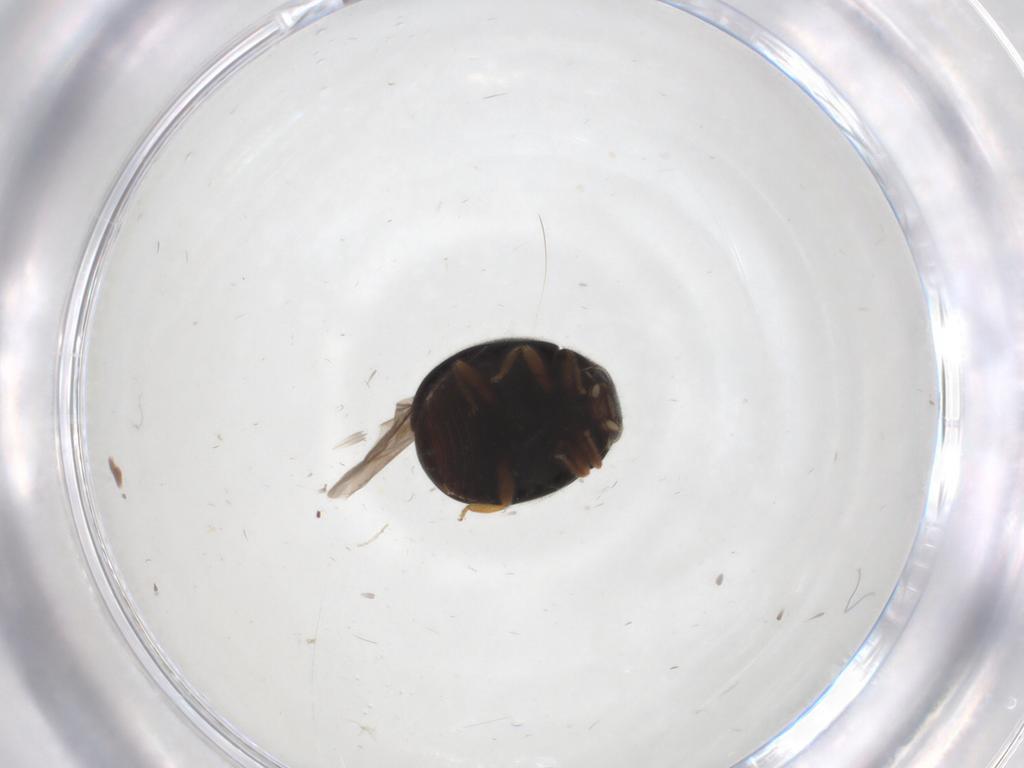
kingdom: Animalia
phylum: Arthropoda
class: Insecta
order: Coleoptera
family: Coccinellidae
